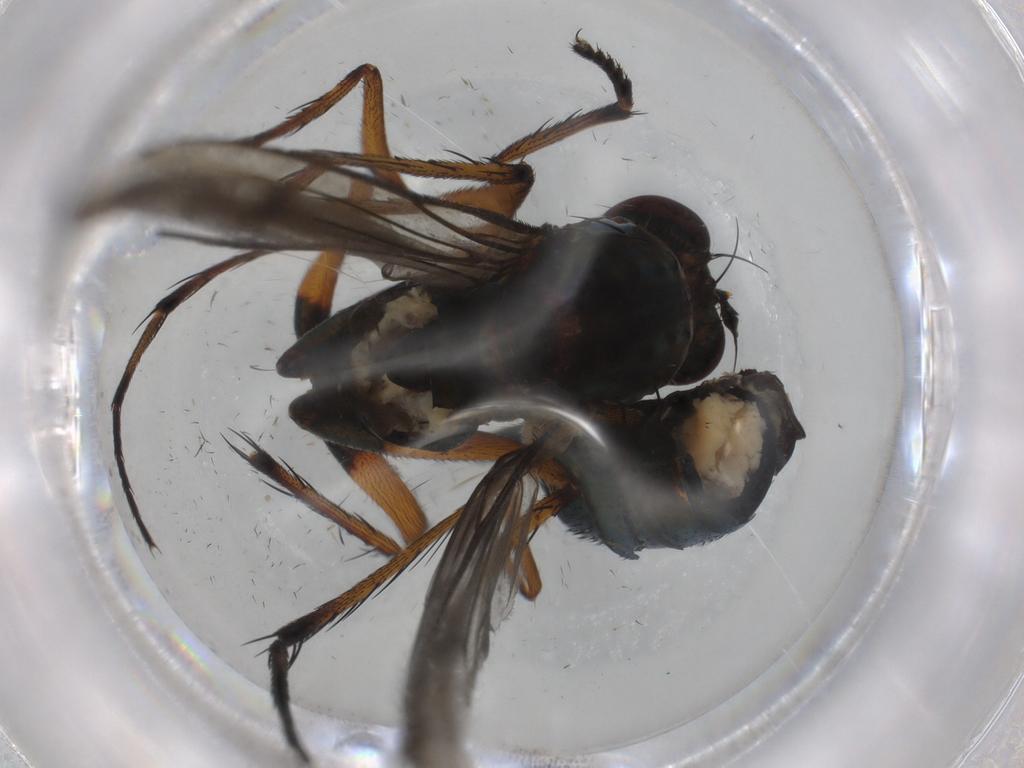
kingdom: Animalia
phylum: Arthropoda
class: Insecta
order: Diptera
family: Dolichopodidae
